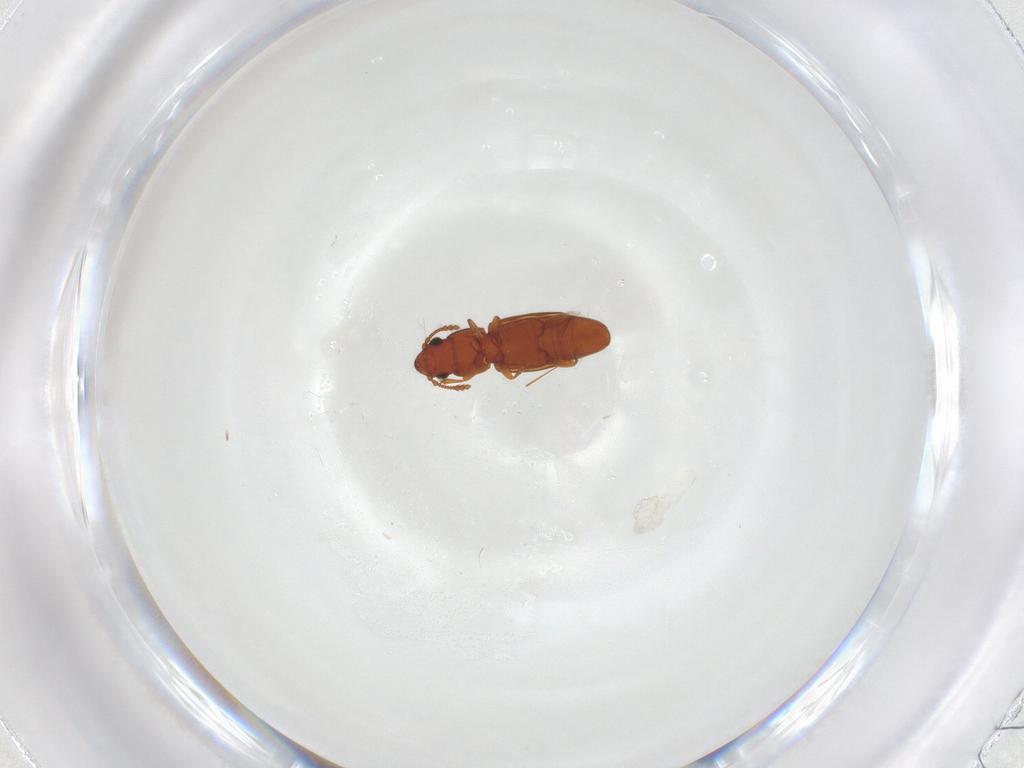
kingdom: Animalia
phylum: Arthropoda
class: Insecta
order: Coleoptera
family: Smicripidae
